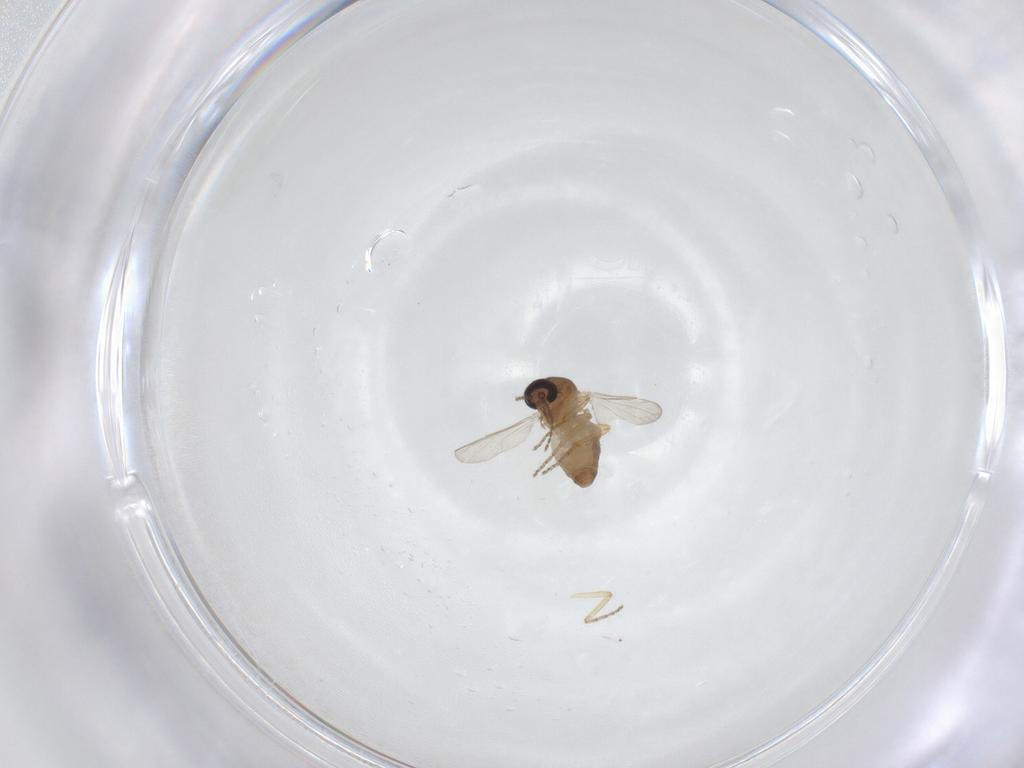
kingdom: Animalia
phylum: Arthropoda
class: Insecta
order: Diptera
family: Ceratopogonidae
